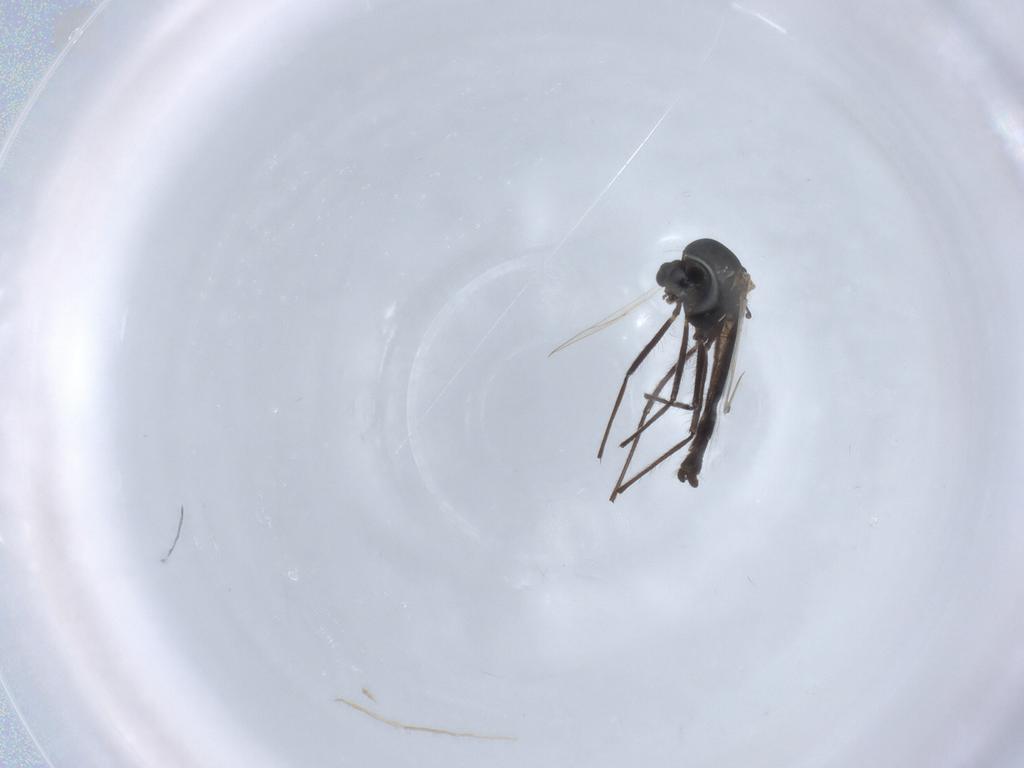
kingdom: Animalia
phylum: Arthropoda
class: Insecta
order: Diptera
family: Chironomidae
